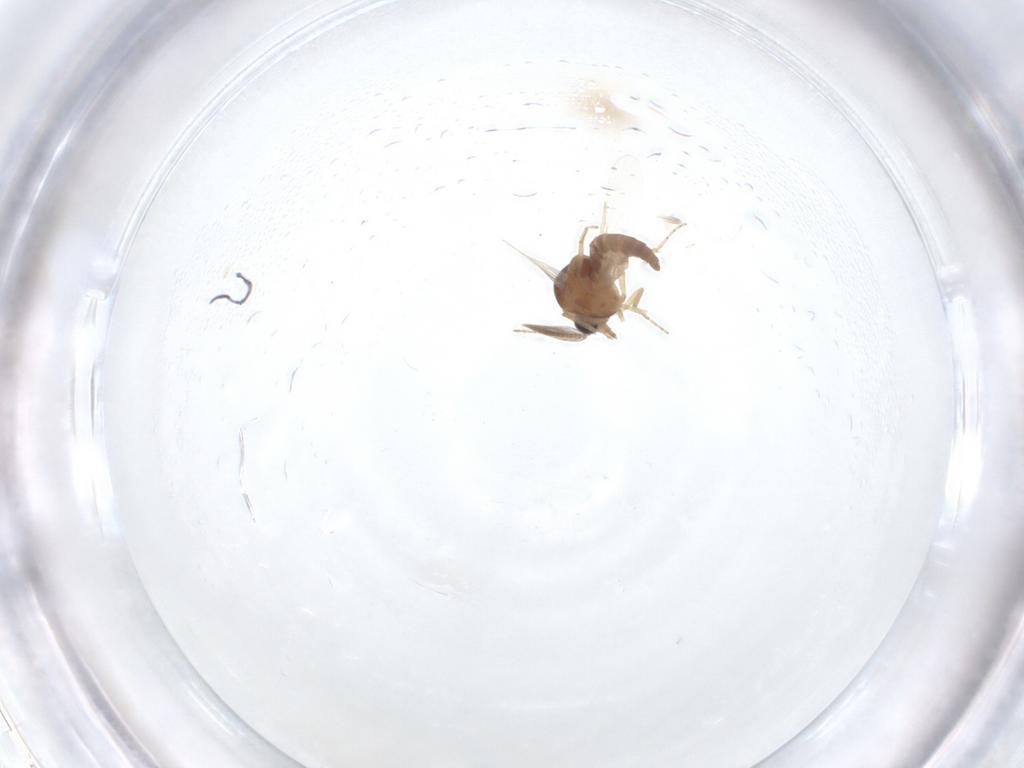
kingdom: Animalia
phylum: Arthropoda
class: Insecta
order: Diptera
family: Ceratopogonidae
